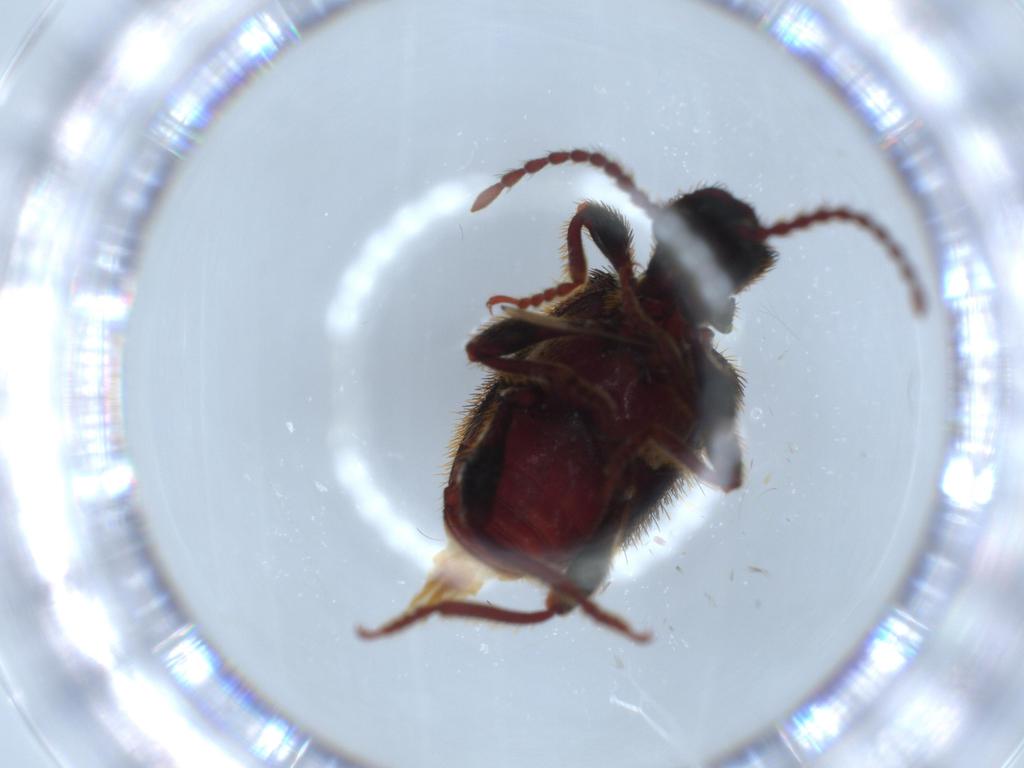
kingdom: Animalia
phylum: Arthropoda
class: Insecta
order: Coleoptera
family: Coccinellidae
